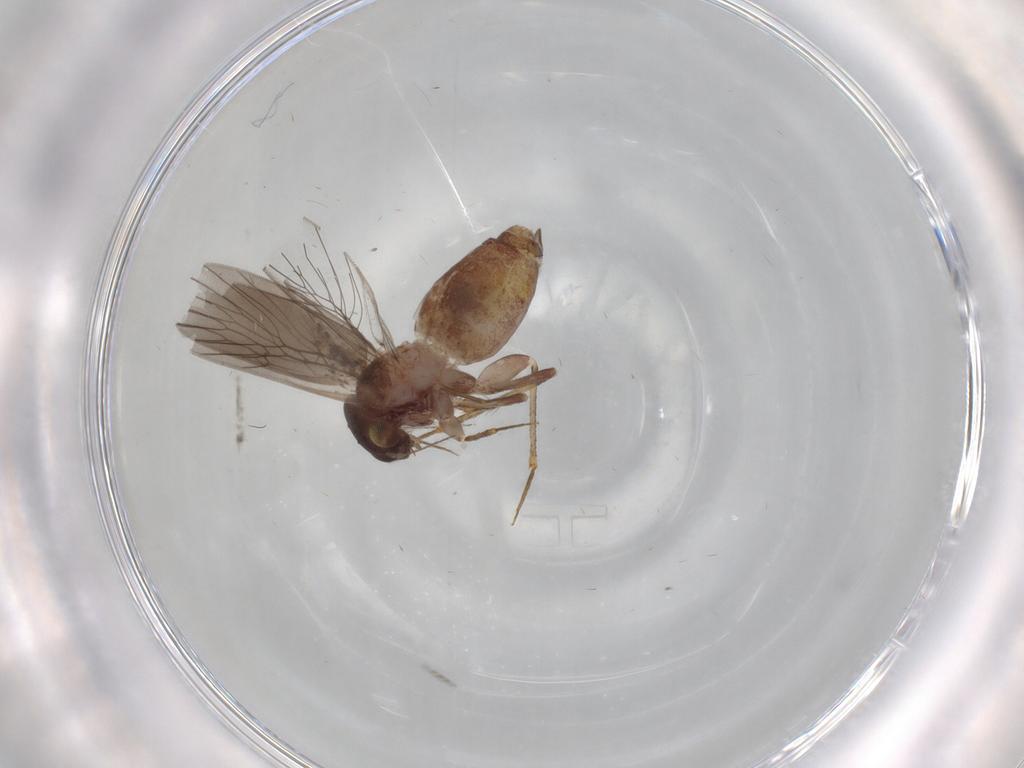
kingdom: Animalia
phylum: Arthropoda
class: Insecta
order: Psocodea
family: Lepidopsocidae
